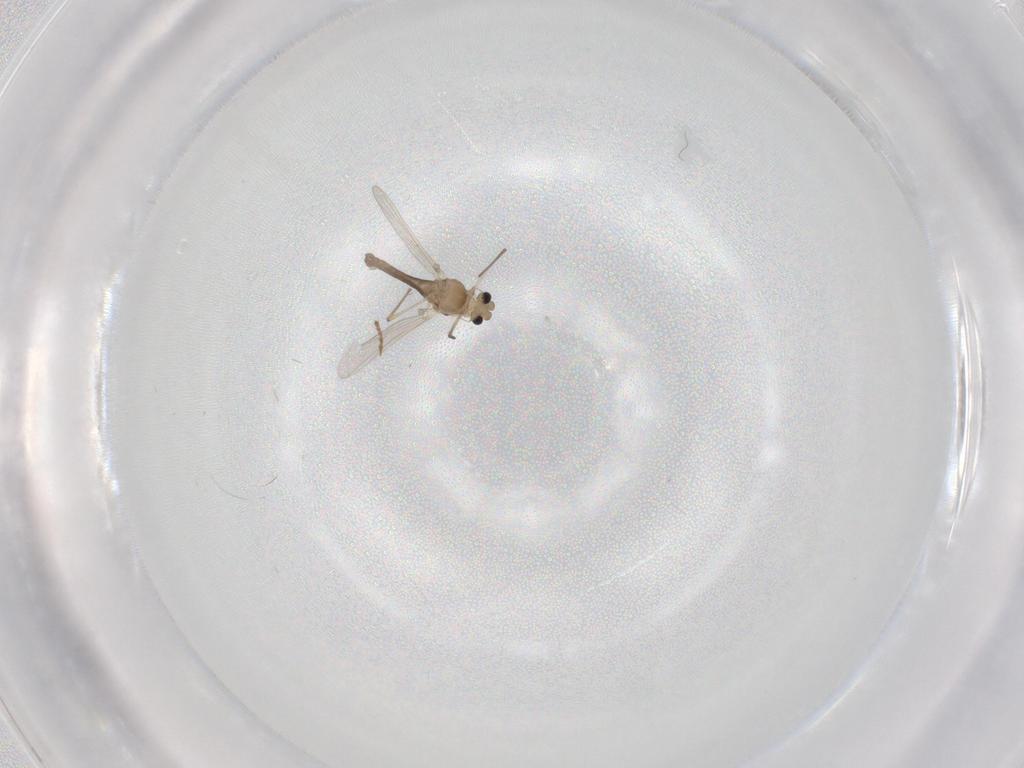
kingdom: Animalia
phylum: Arthropoda
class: Insecta
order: Diptera
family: Chironomidae
